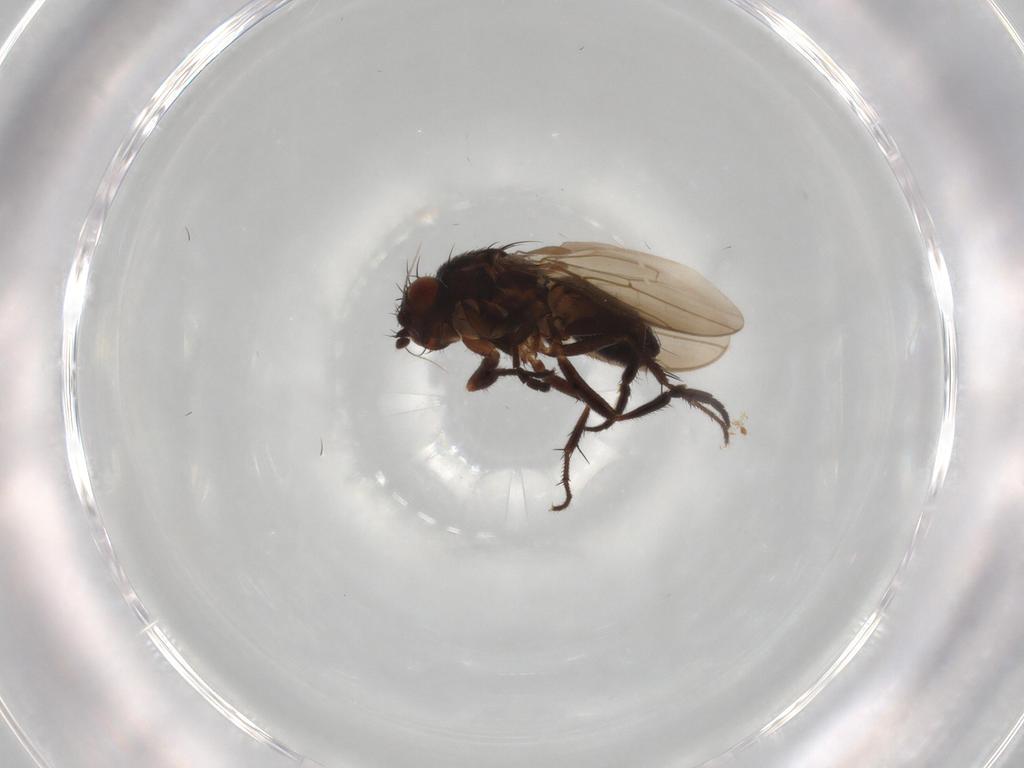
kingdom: Animalia
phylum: Arthropoda
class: Insecta
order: Diptera
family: Sphaeroceridae
